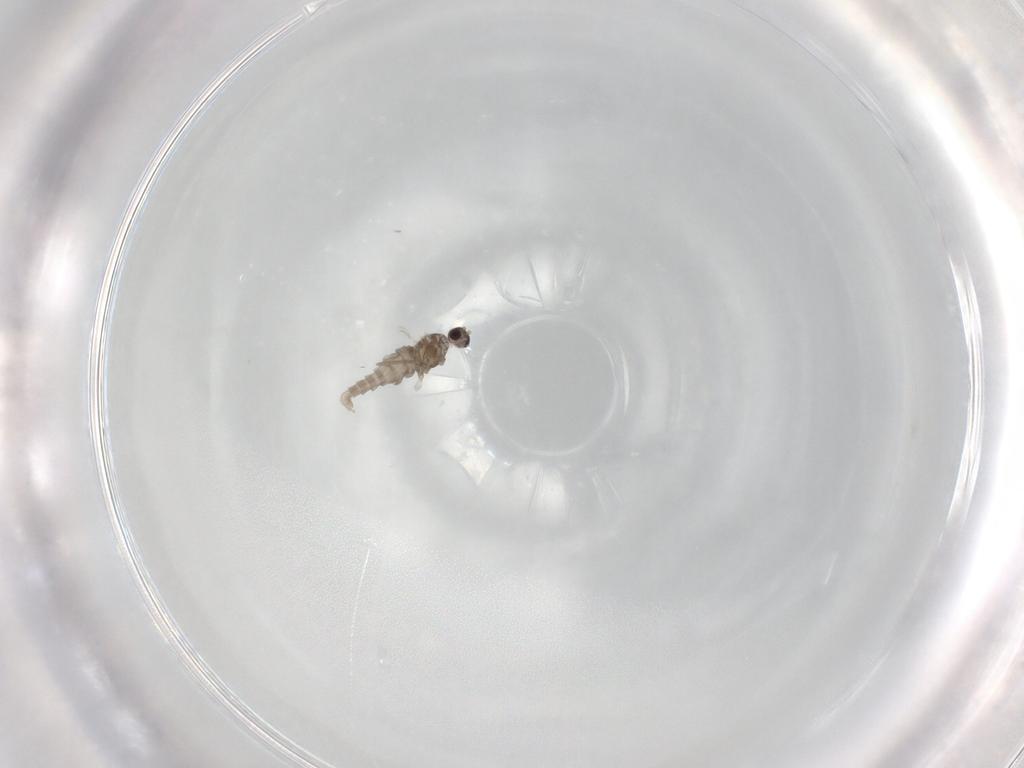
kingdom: Animalia
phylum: Arthropoda
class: Insecta
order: Diptera
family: Cecidomyiidae
